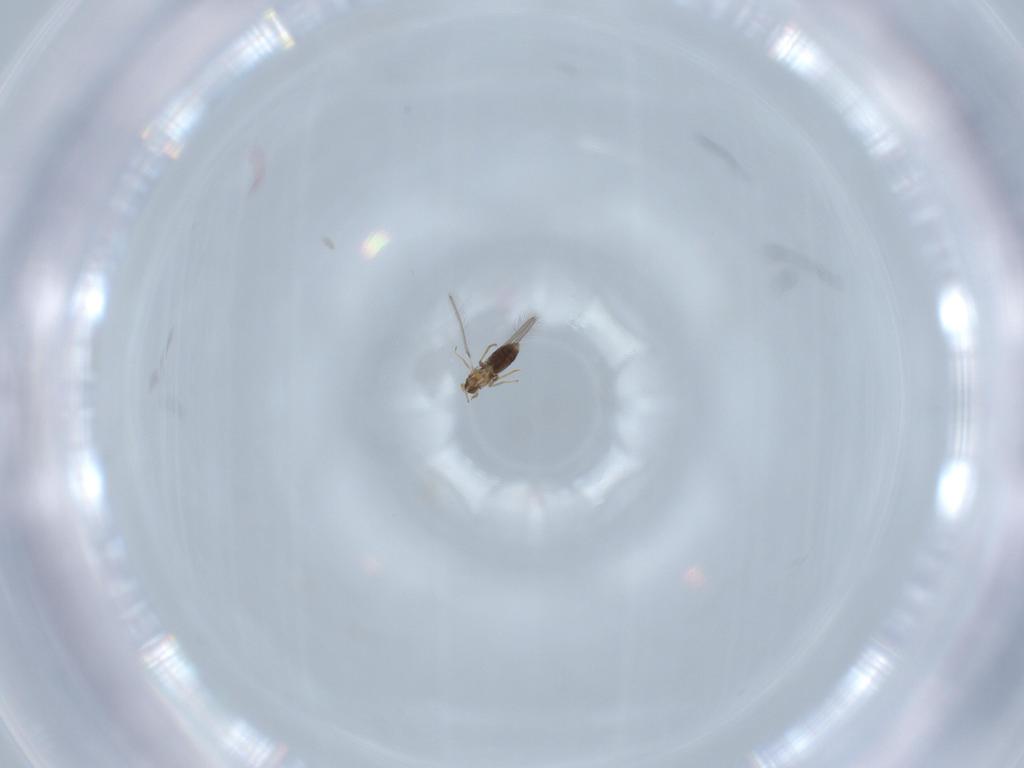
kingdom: Animalia
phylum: Arthropoda
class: Insecta
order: Hymenoptera
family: Mymaridae
